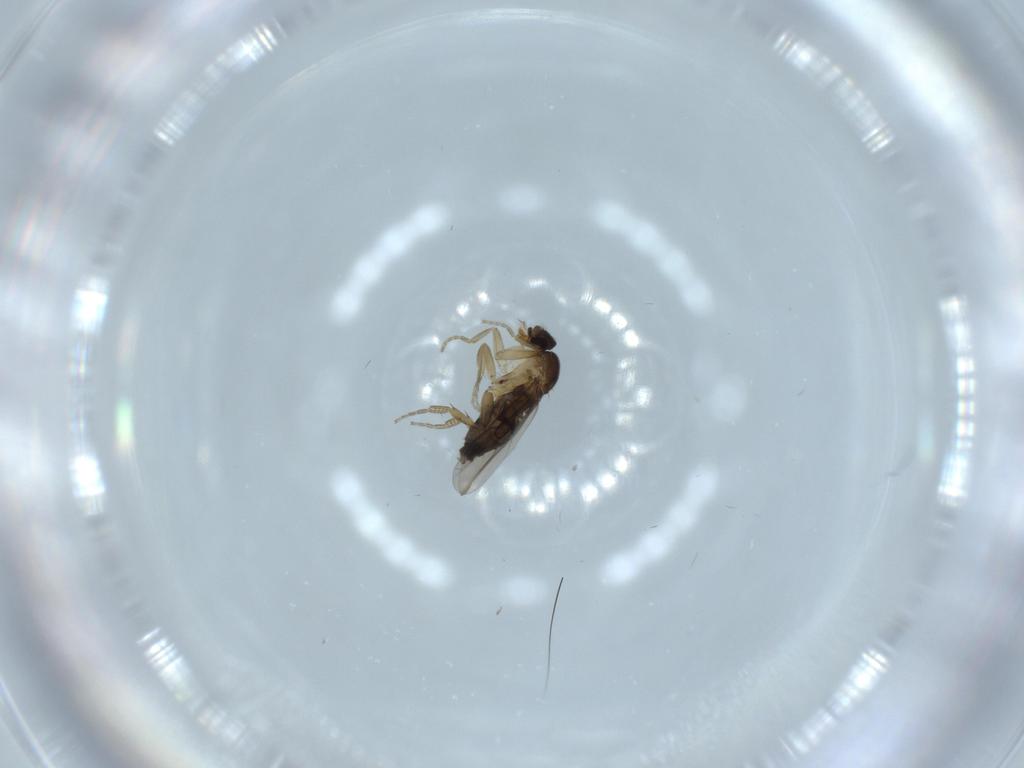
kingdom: Animalia
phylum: Arthropoda
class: Insecta
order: Diptera
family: Phoridae
